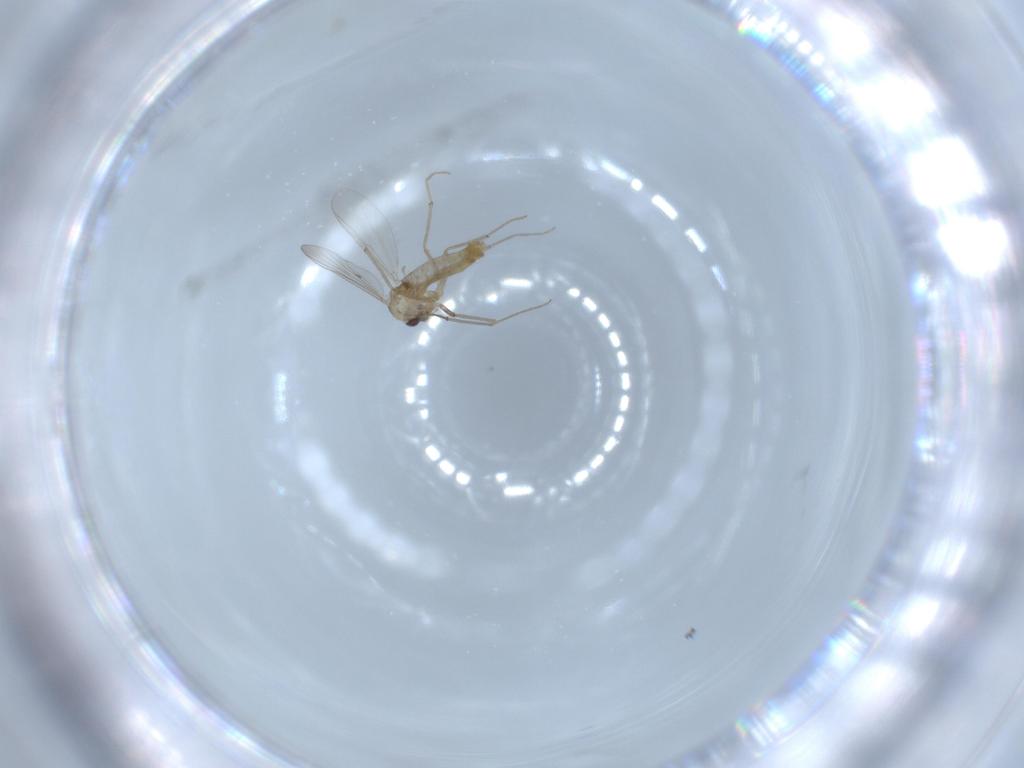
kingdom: Animalia
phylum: Arthropoda
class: Insecta
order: Diptera
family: Chironomidae
